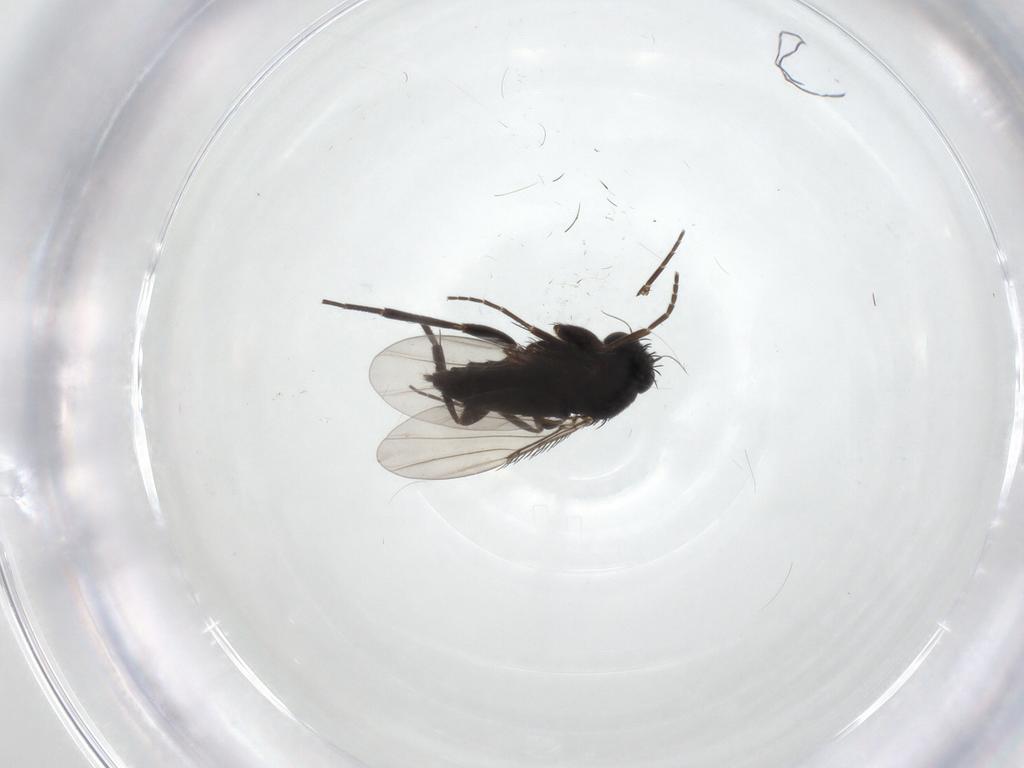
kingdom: Animalia
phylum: Arthropoda
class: Insecta
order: Diptera
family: Phoridae
